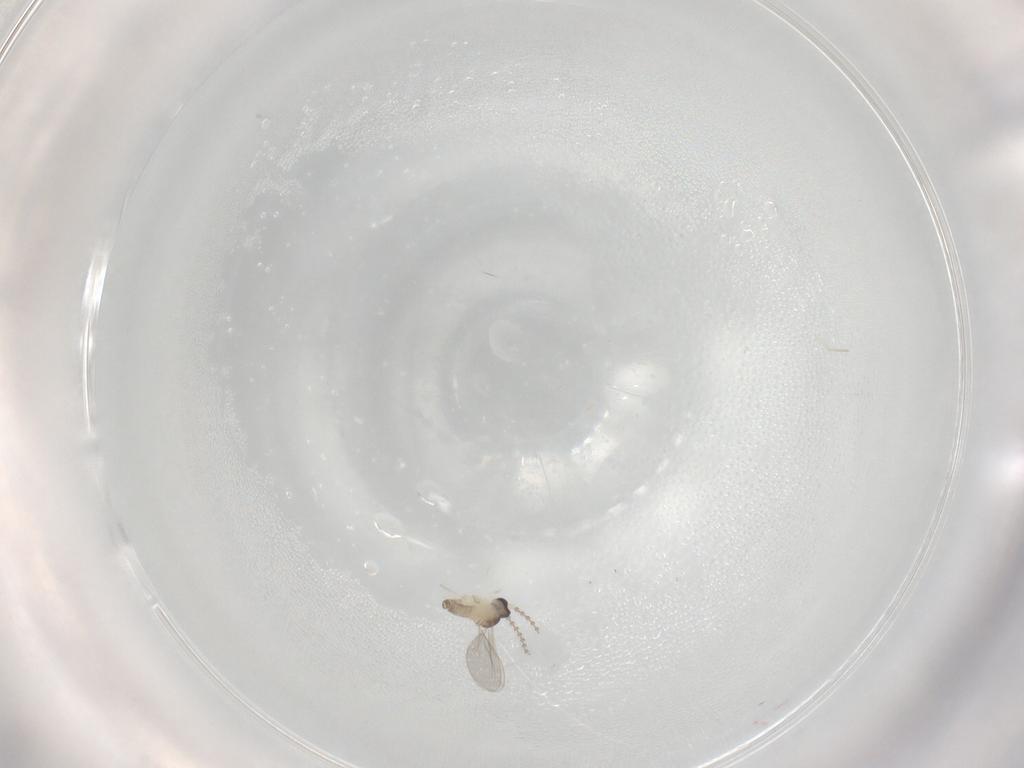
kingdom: Animalia
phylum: Arthropoda
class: Insecta
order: Diptera
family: Cecidomyiidae
